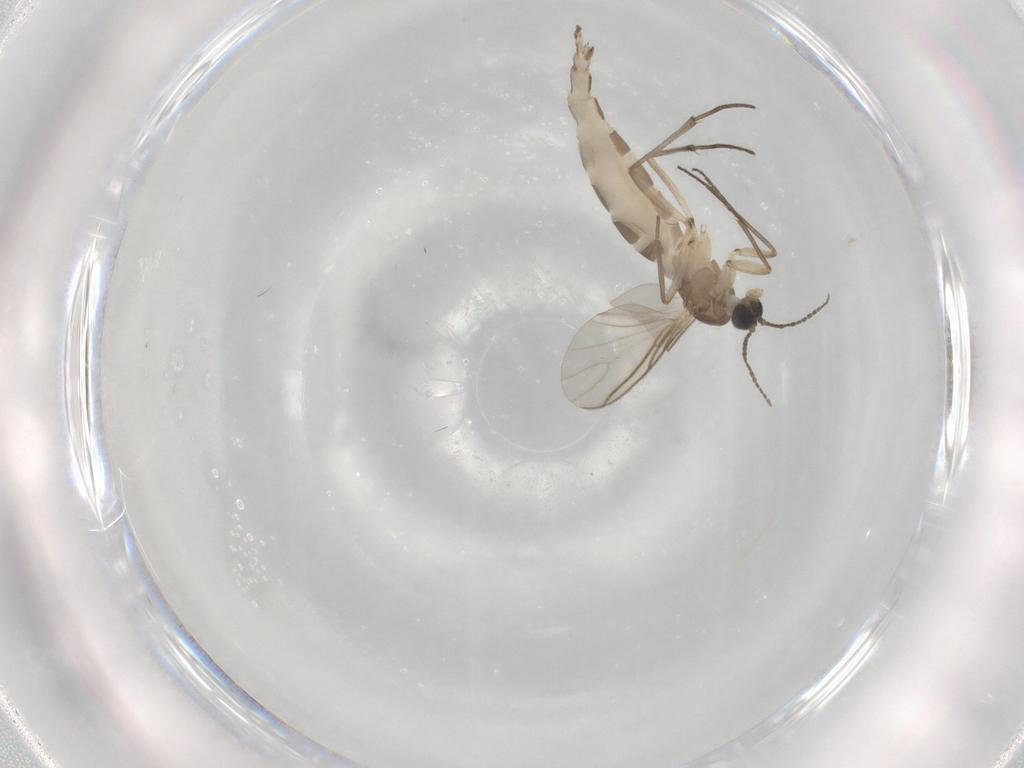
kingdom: Animalia
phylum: Arthropoda
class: Insecta
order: Diptera
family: Sciaridae
